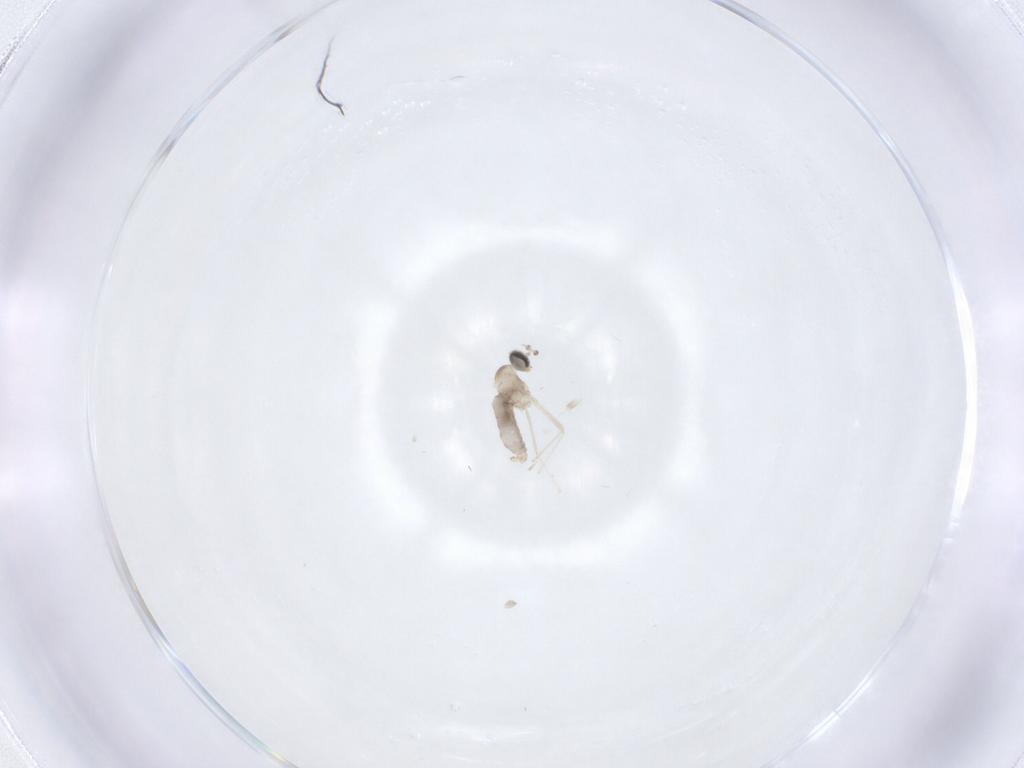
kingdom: Animalia
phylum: Arthropoda
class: Insecta
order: Diptera
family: Cecidomyiidae
